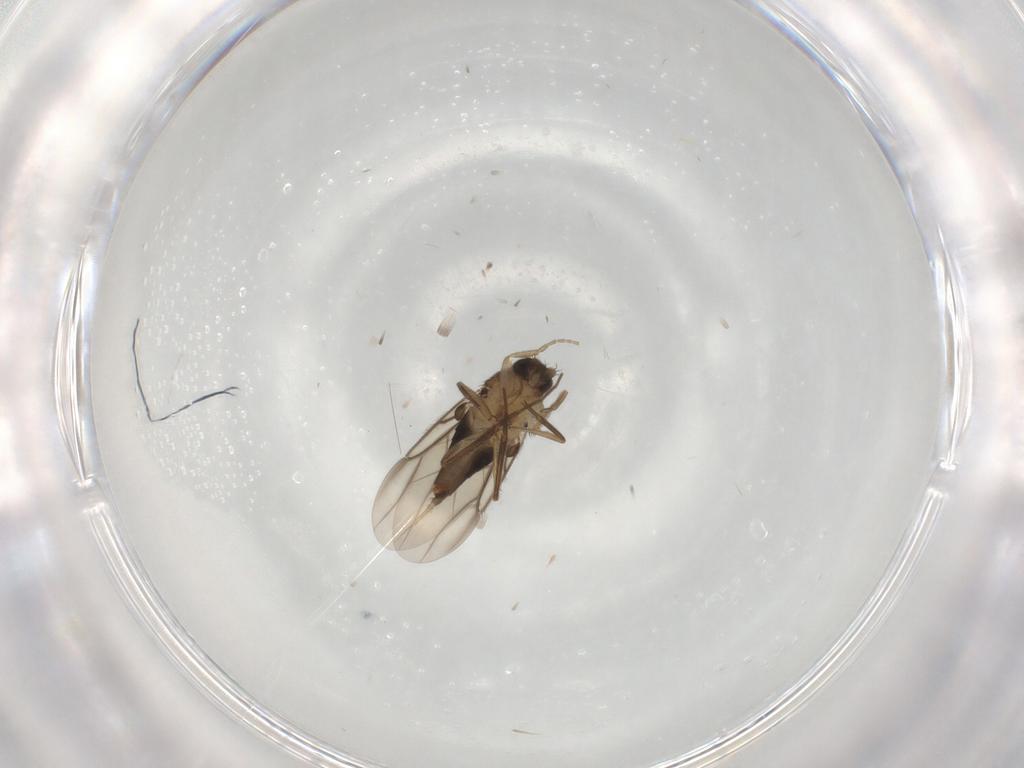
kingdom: Animalia
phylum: Arthropoda
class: Insecta
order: Diptera
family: Phoridae
